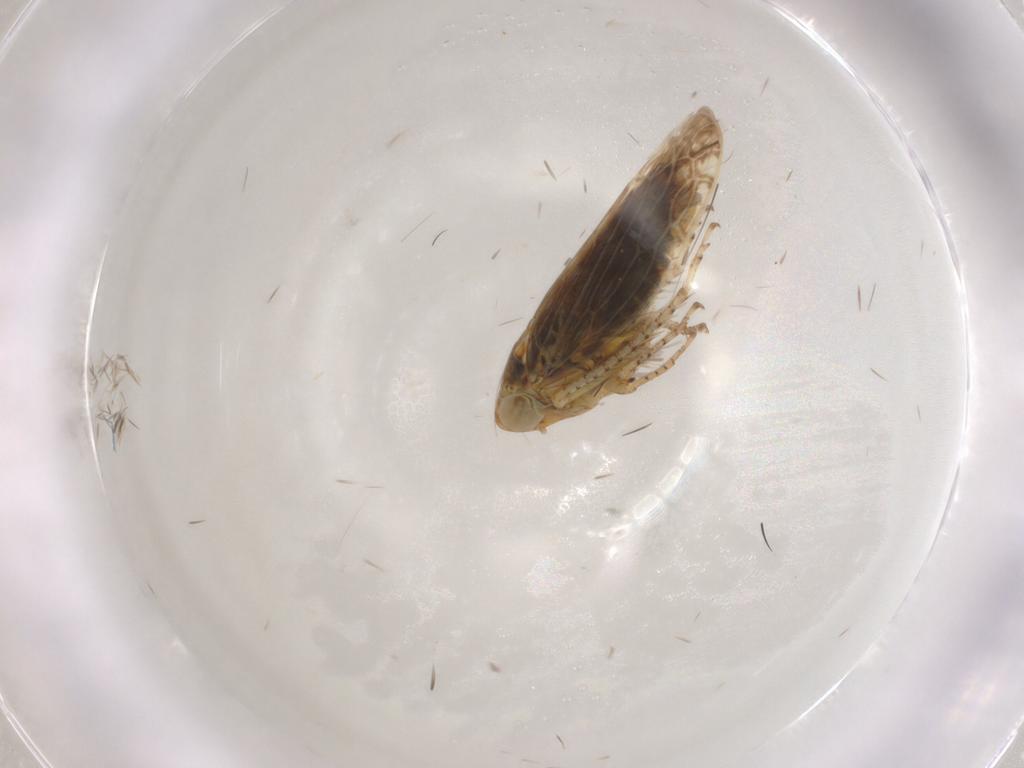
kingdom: Animalia
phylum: Arthropoda
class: Insecta
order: Hemiptera
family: Cicadellidae
